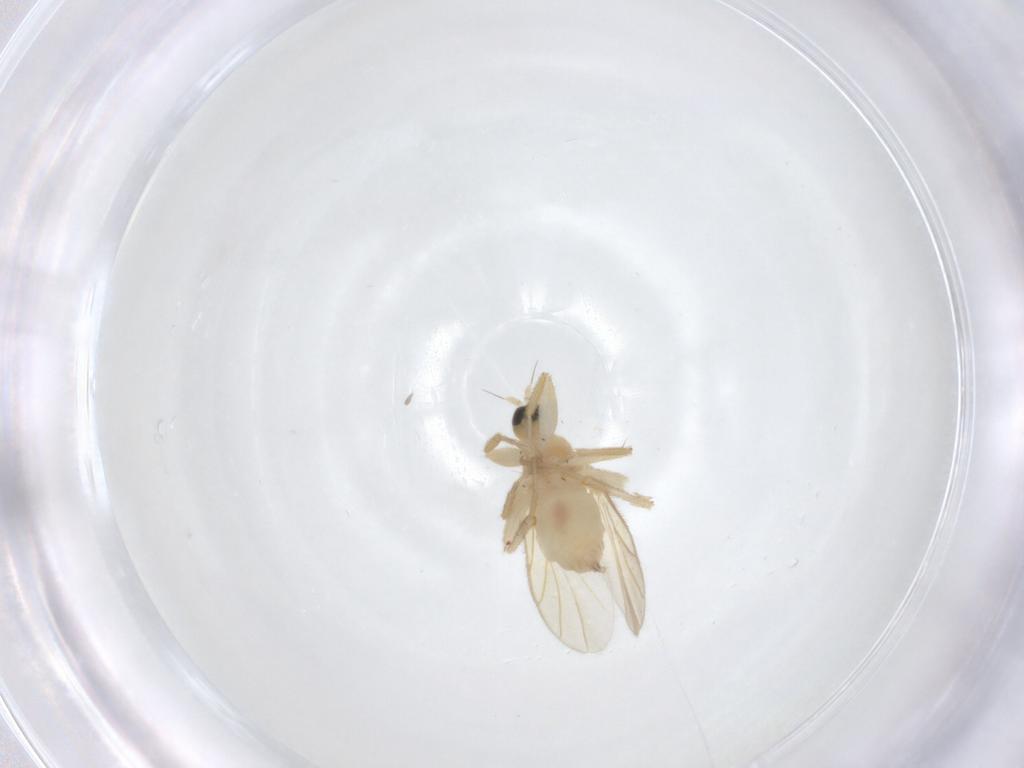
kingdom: Animalia
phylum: Arthropoda
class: Insecta
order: Diptera
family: Hybotidae
